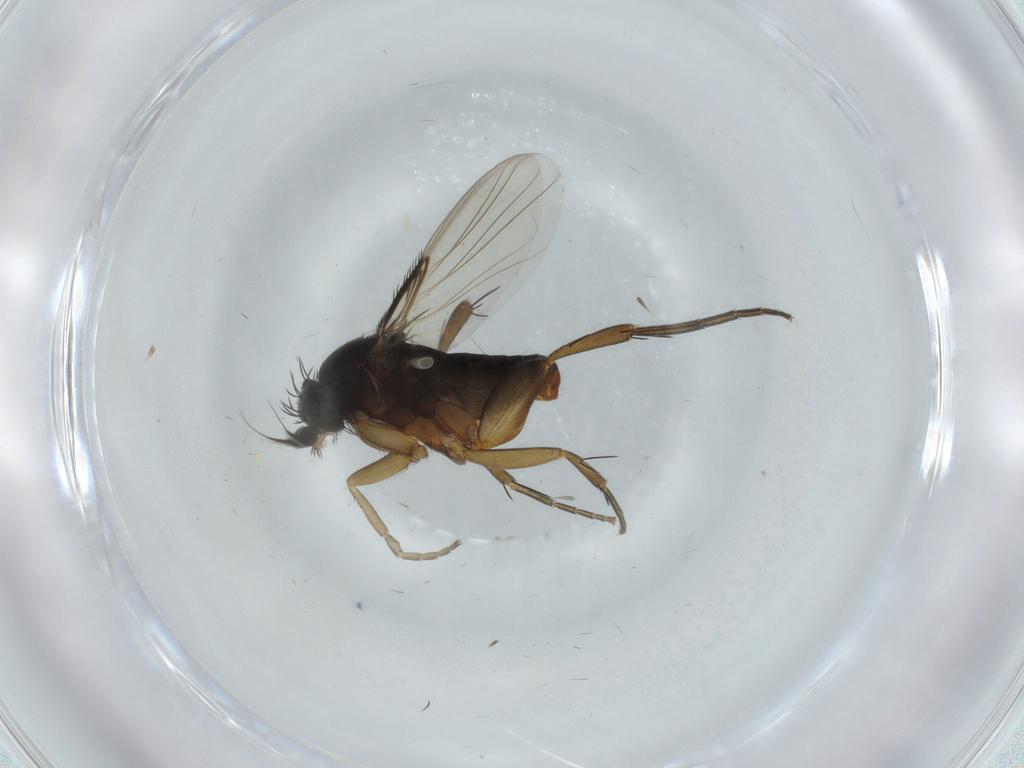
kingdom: Animalia
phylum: Arthropoda
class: Insecta
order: Diptera
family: Phoridae
